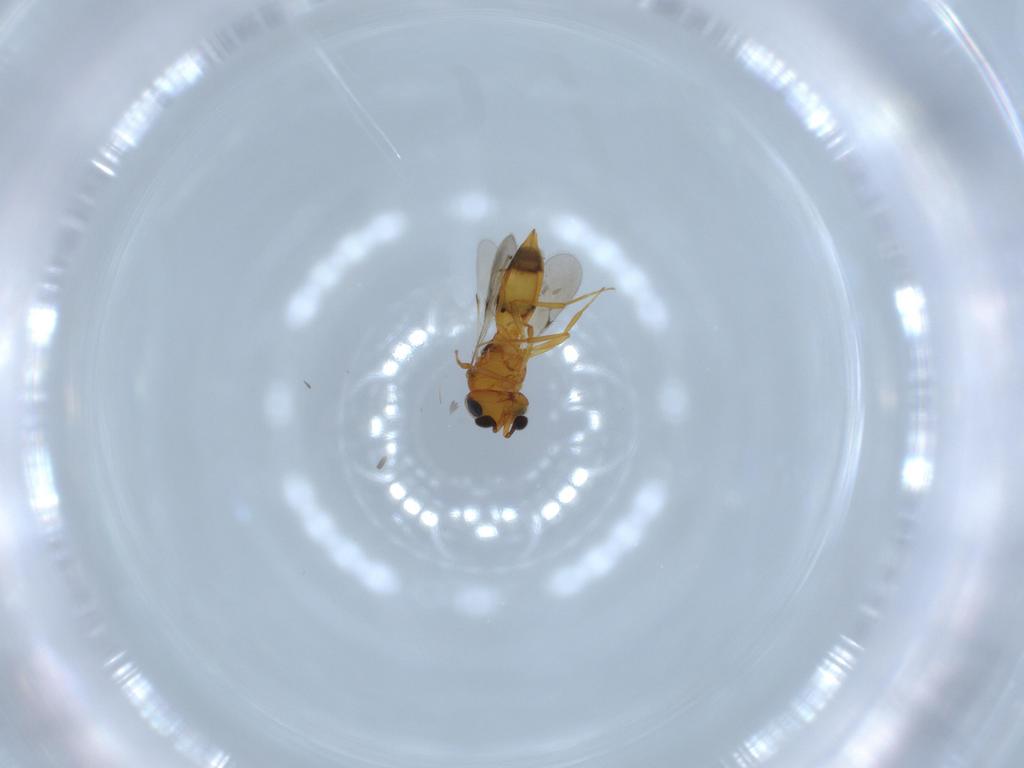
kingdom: Animalia
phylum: Arthropoda
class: Insecta
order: Hymenoptera
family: Scelionidae
